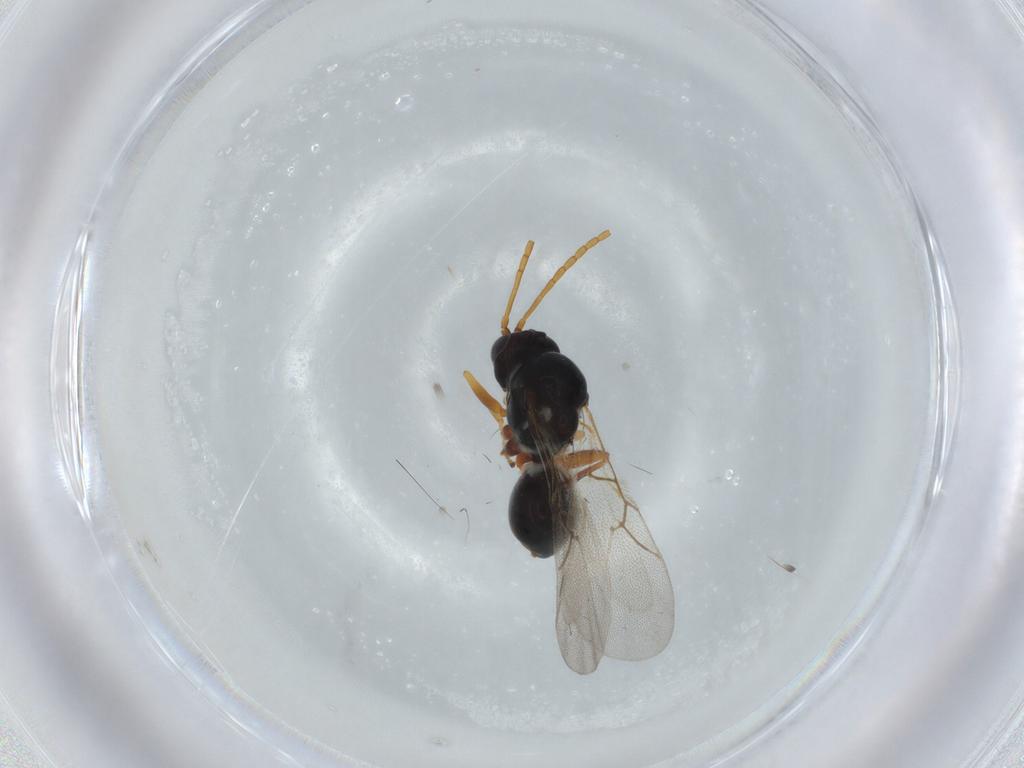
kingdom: Animalia
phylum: Arthropoda
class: Insecta
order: Hymenoptera
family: Figitidae
